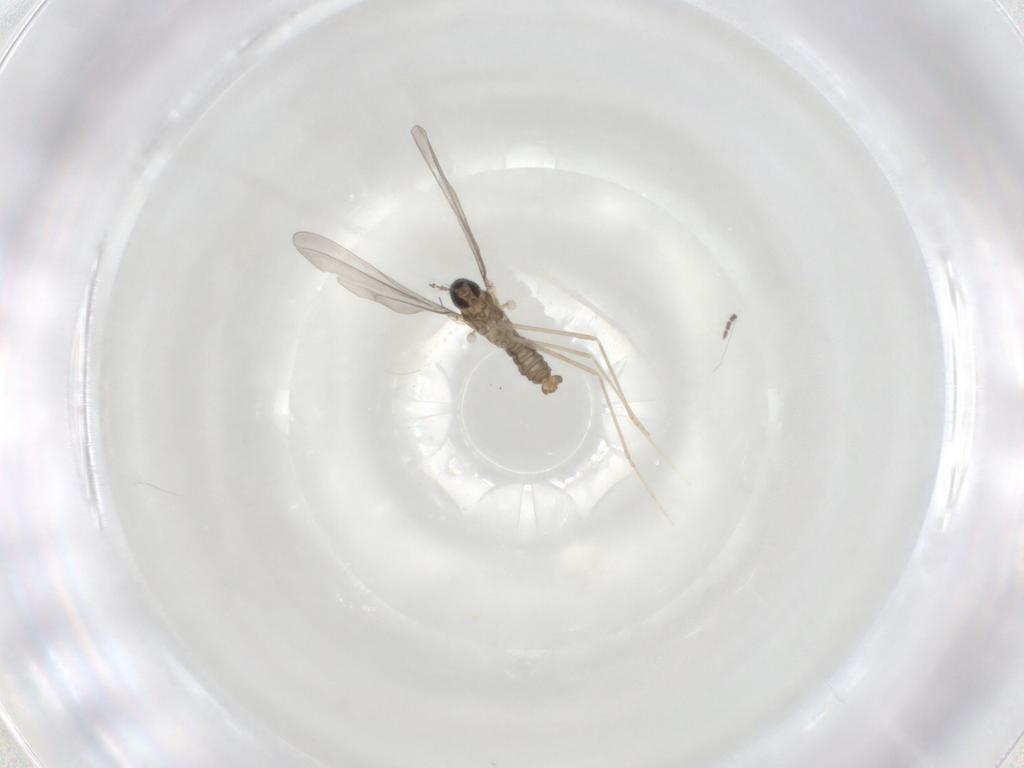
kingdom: Animalia
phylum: Arthropoda
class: Insecta
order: Diptera
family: Cecidomyiidae
